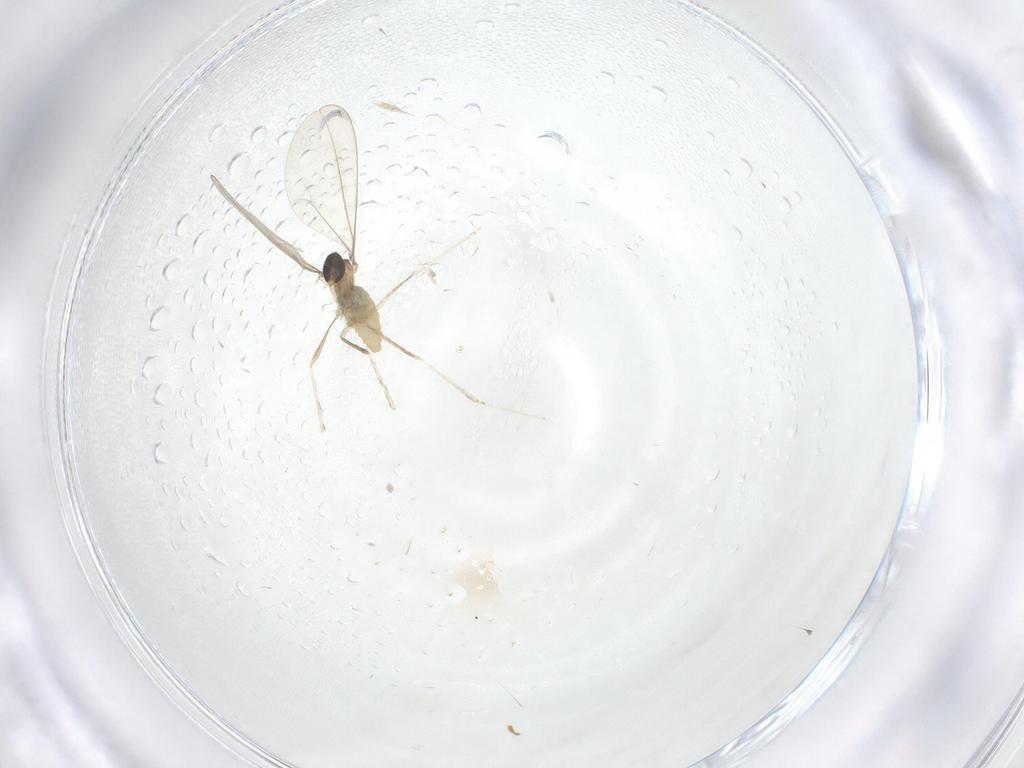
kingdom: Animalia
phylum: Arthropoda
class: Insecta
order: Diptera
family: Cecidomyiidae
